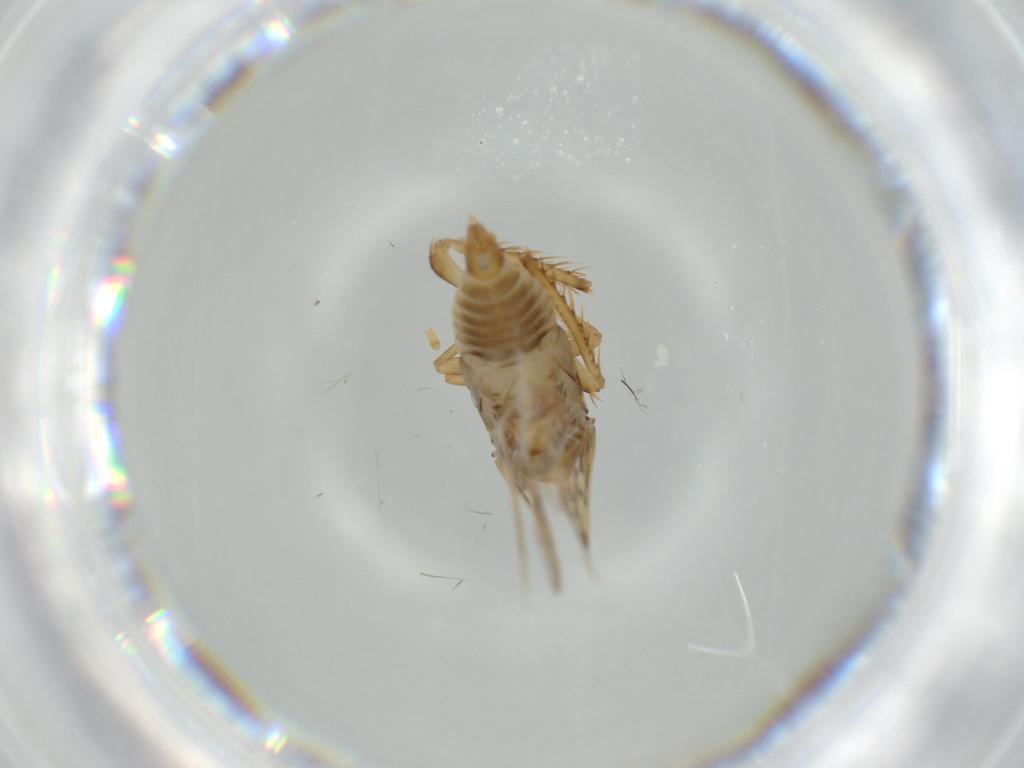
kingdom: Animalia
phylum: Arthropoda
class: Insecta
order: Hemiptera
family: Cicadellidae
